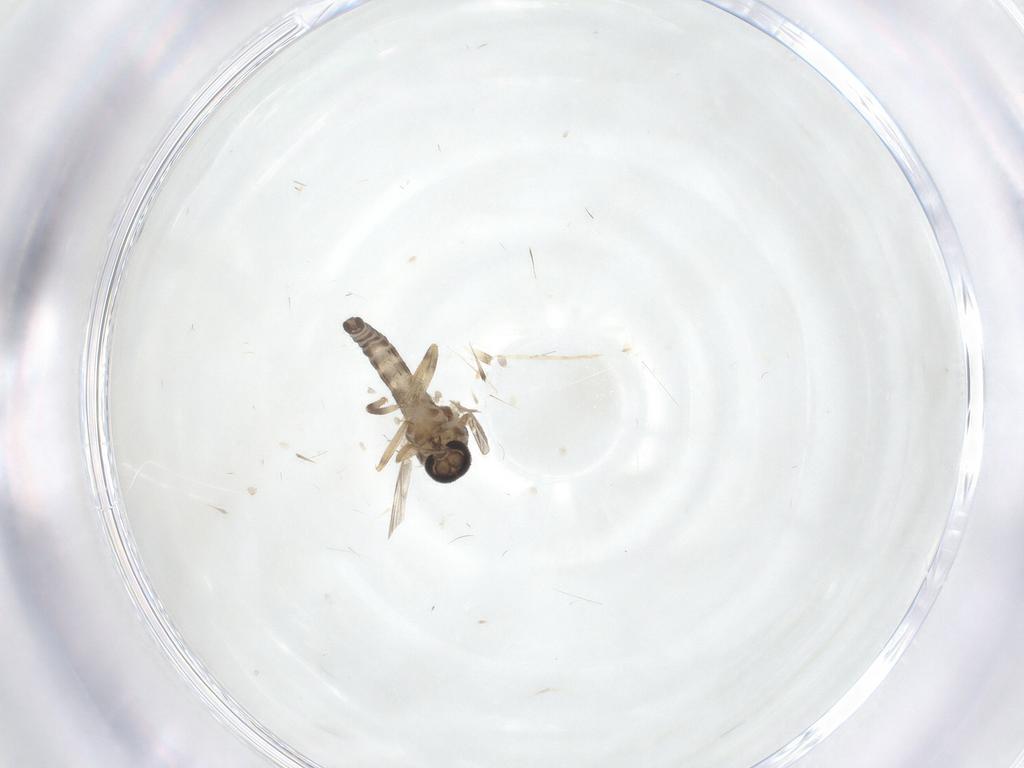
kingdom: Animalia
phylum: Arthropoda
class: Insecta
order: Diptera
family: Ceratopogonidae
